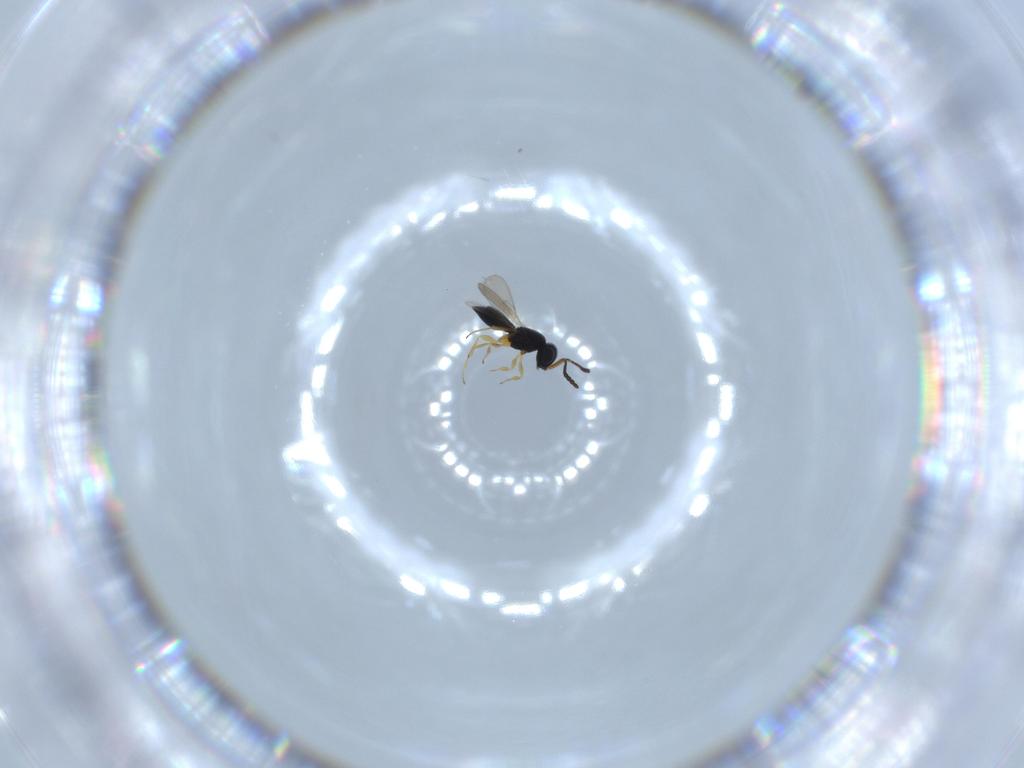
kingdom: Animalia
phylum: Arthropoda
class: Insecta
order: Hymenoptera
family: Scelionidae
